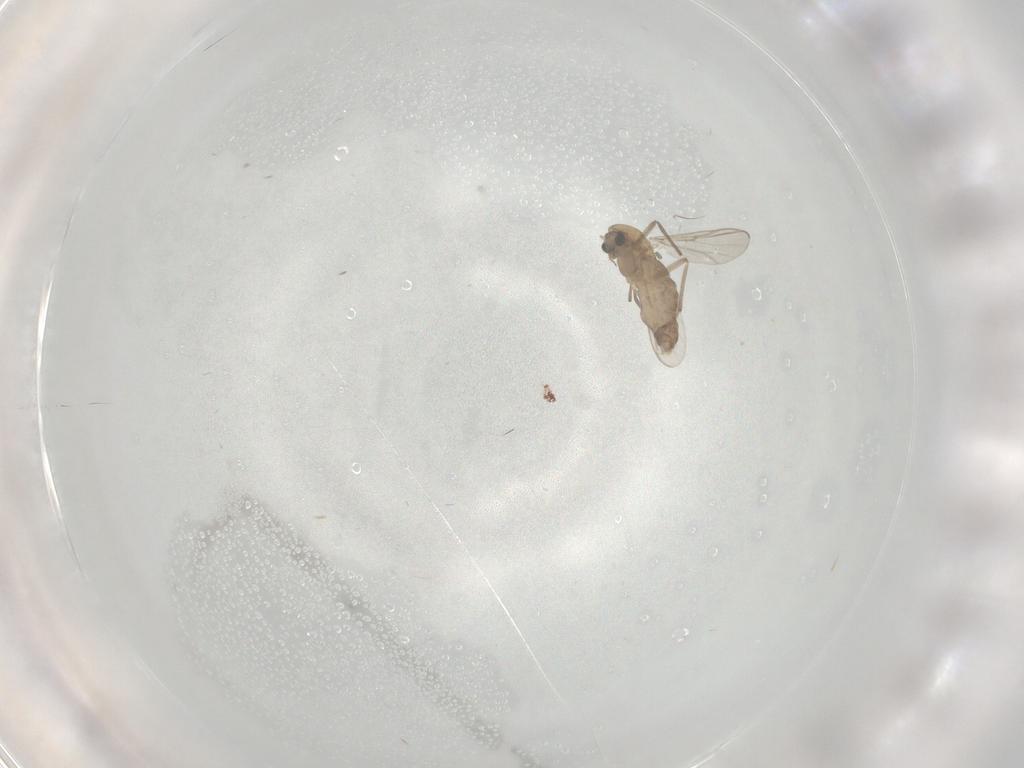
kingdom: Animalia
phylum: Arthropoda
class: Insecta
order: Diptera
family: Chironomidae
